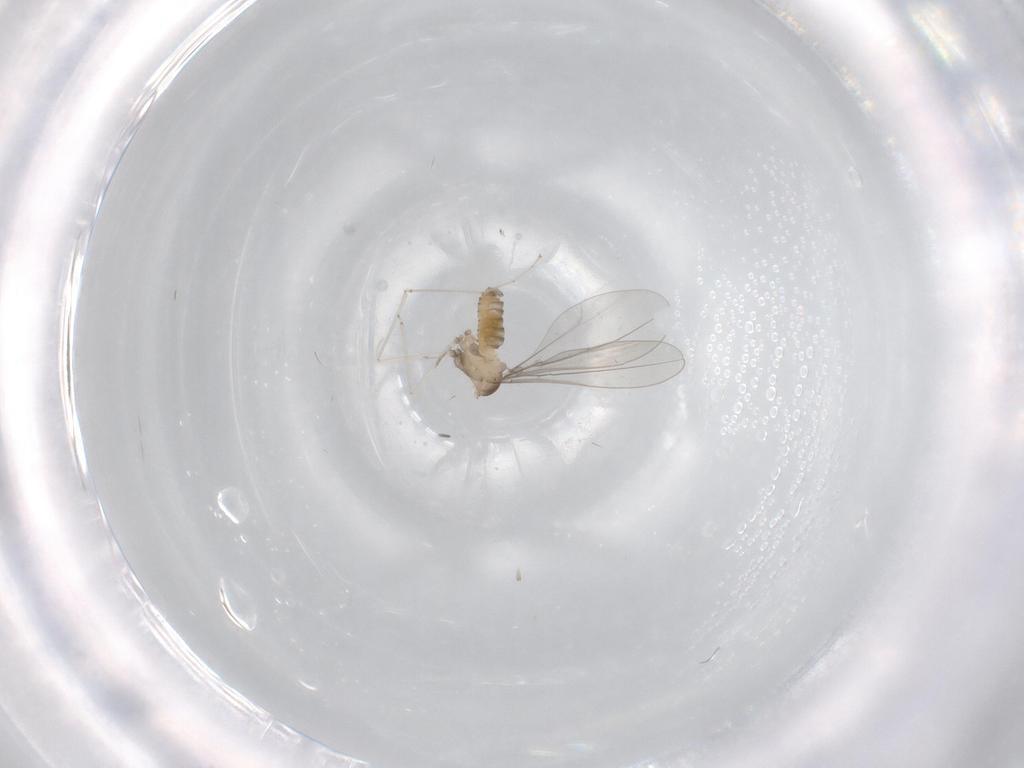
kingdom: Animalia
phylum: Arthropoda
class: Insecta
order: Diptera
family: Cecidomyiidae
